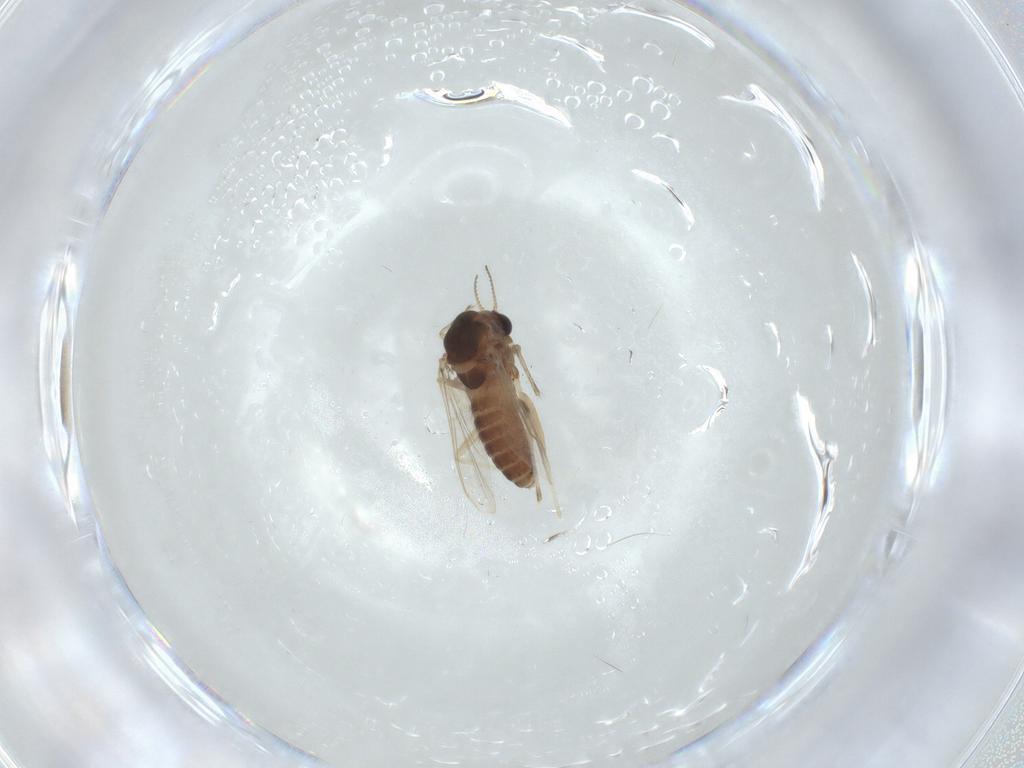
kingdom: Animalia
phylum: Arthropoda
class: Insecta
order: Diptera
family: Chironomidae
